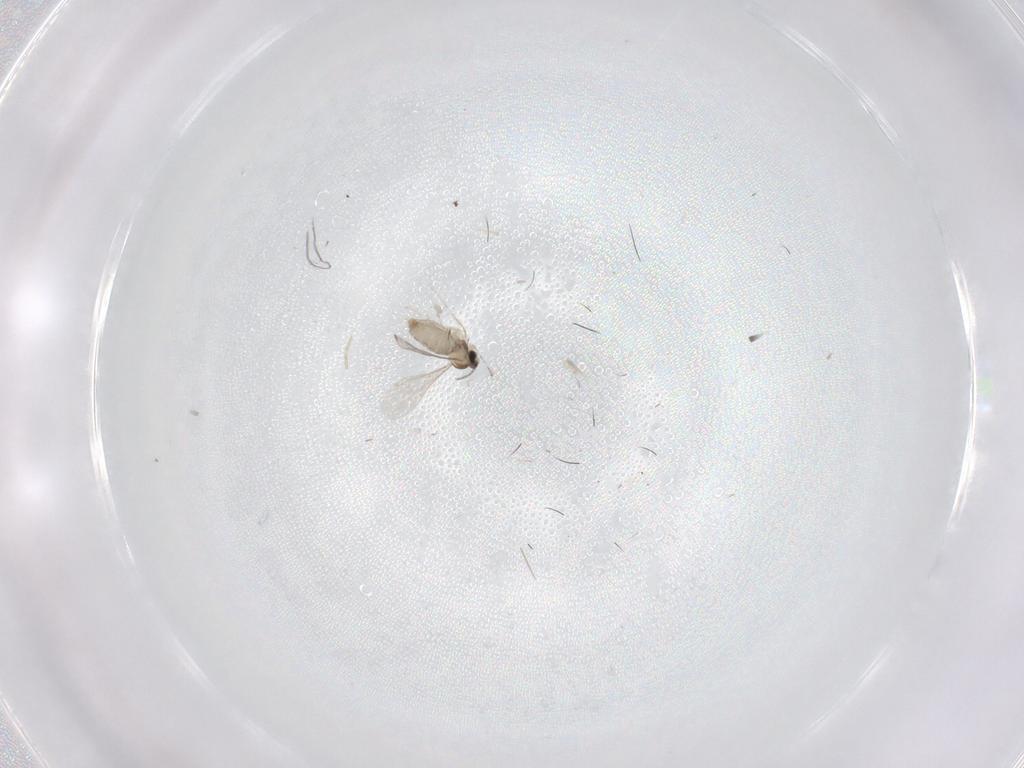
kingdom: Animalia
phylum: Arthropoda
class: Insecta
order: Diptera
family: Cecidomyiidae
